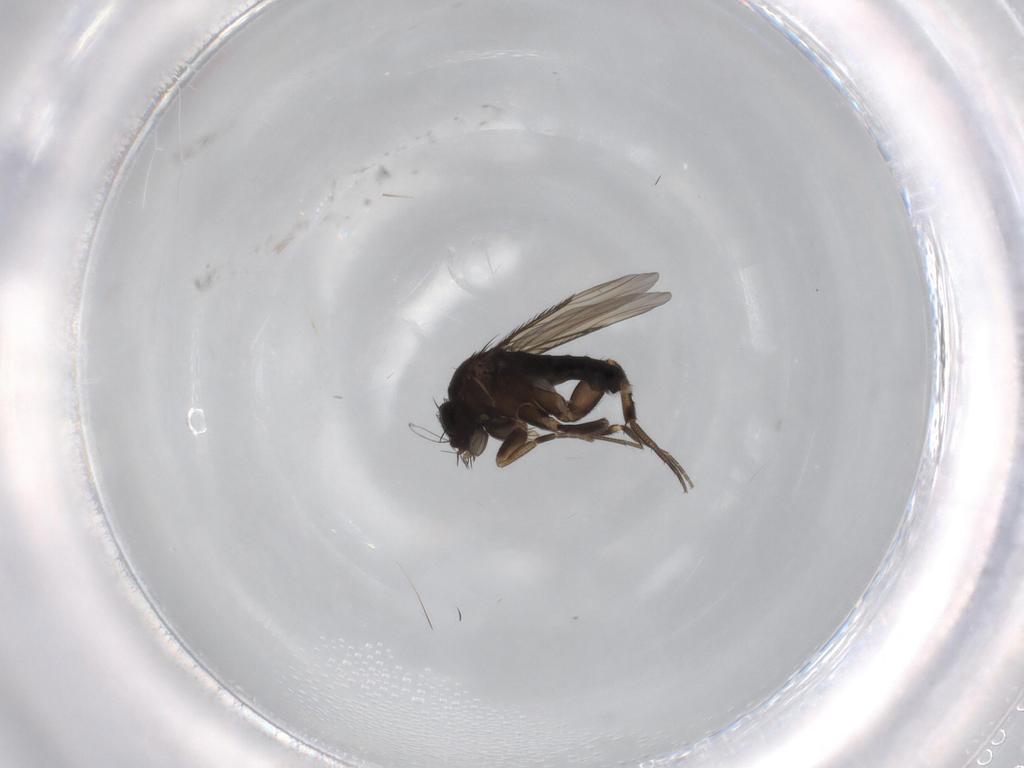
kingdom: Animalia
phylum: Arthropoda
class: Insecta
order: Diptera
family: Phoridae
